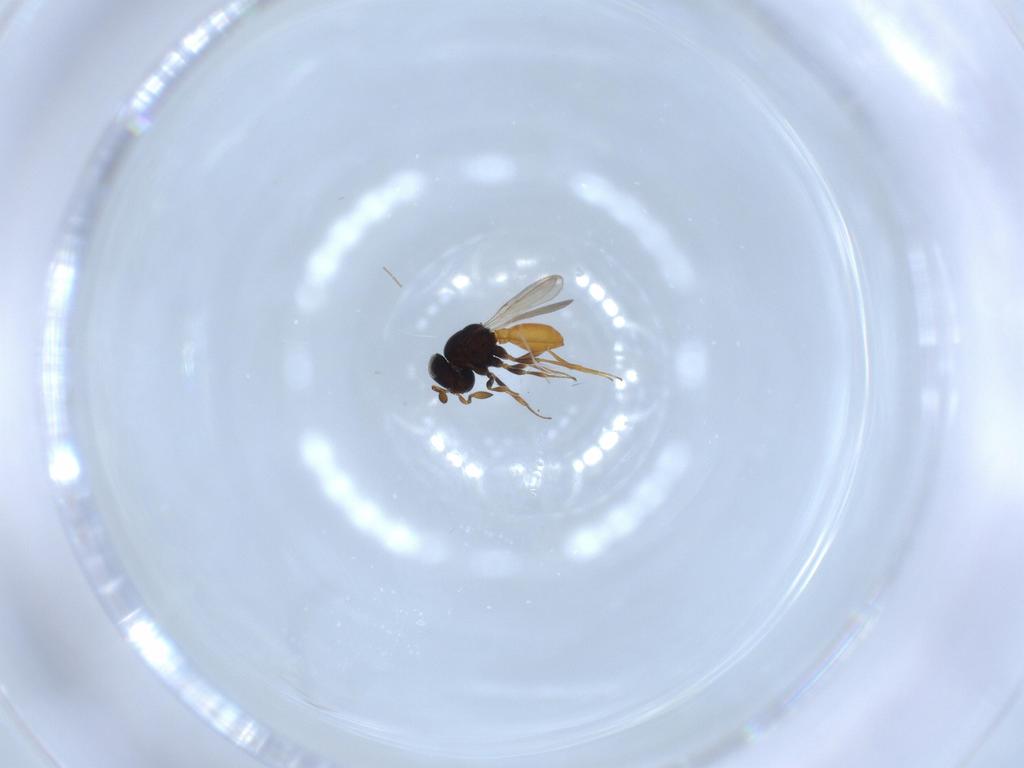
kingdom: Animalia
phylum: Arthropoda
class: Insecta
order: Hymenoptera
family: Scelionidae
